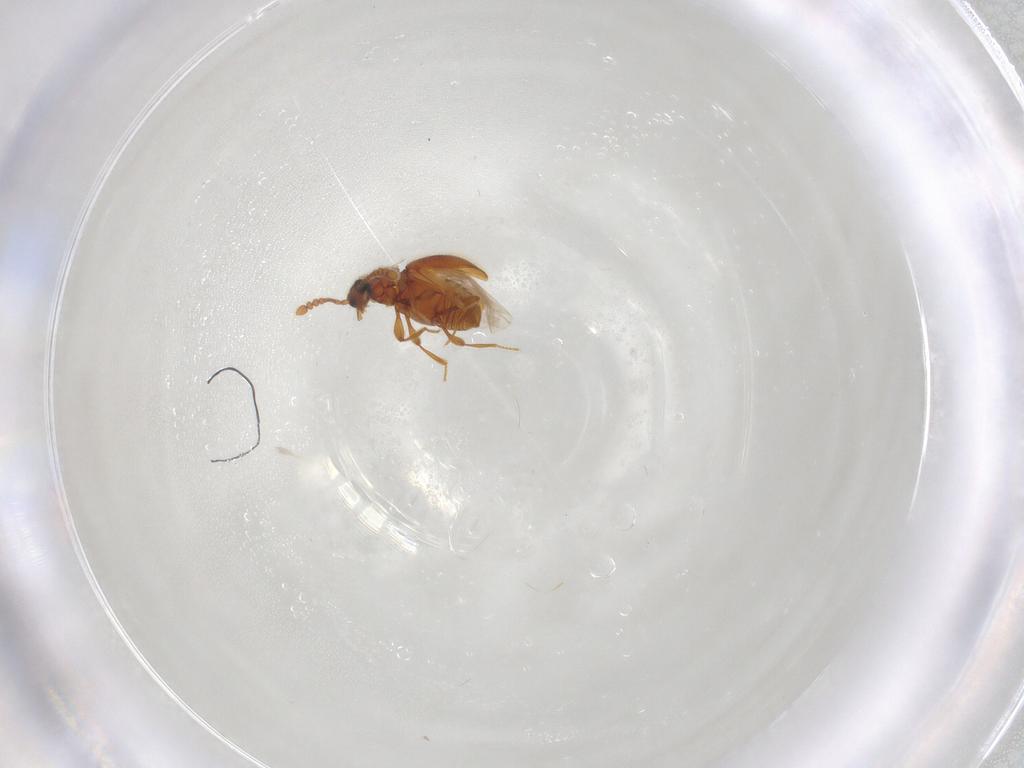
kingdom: Animalia
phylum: Arthropoda
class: Insecta
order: Coleoptera
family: Staphylinidae
